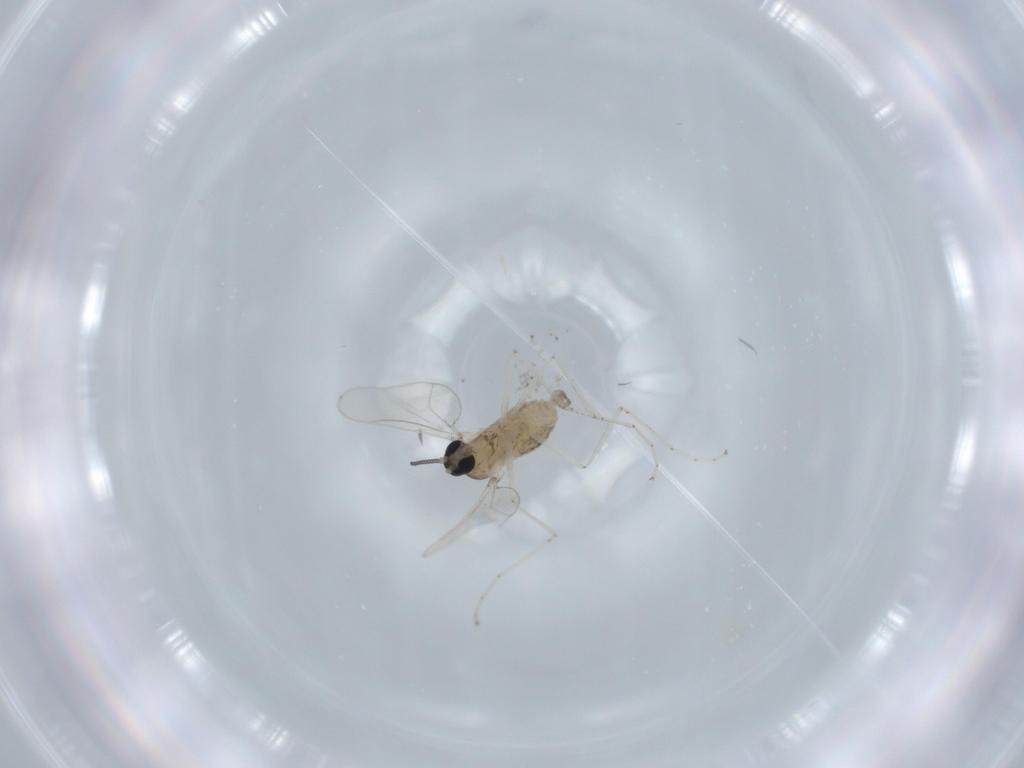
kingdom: Animalia
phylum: Arthropoda
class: Insecta
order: Diptera
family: Cecidomyiidae
